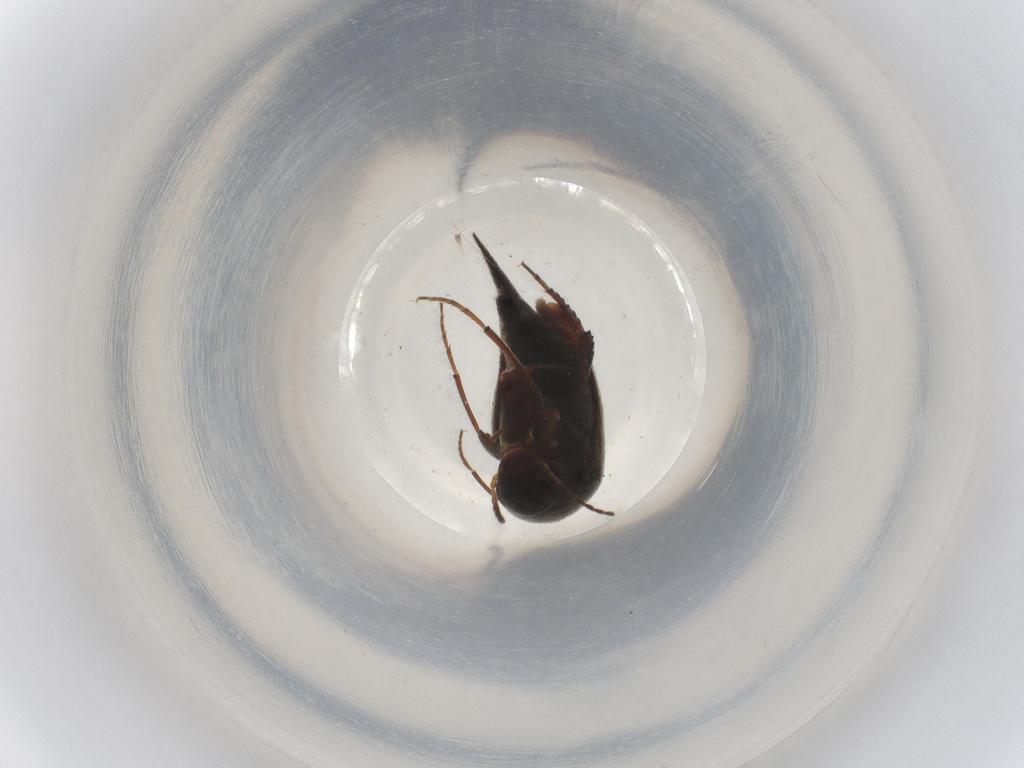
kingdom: Animalia
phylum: Arthropoda
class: Insecta
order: Coleoptera
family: Mordellidae
